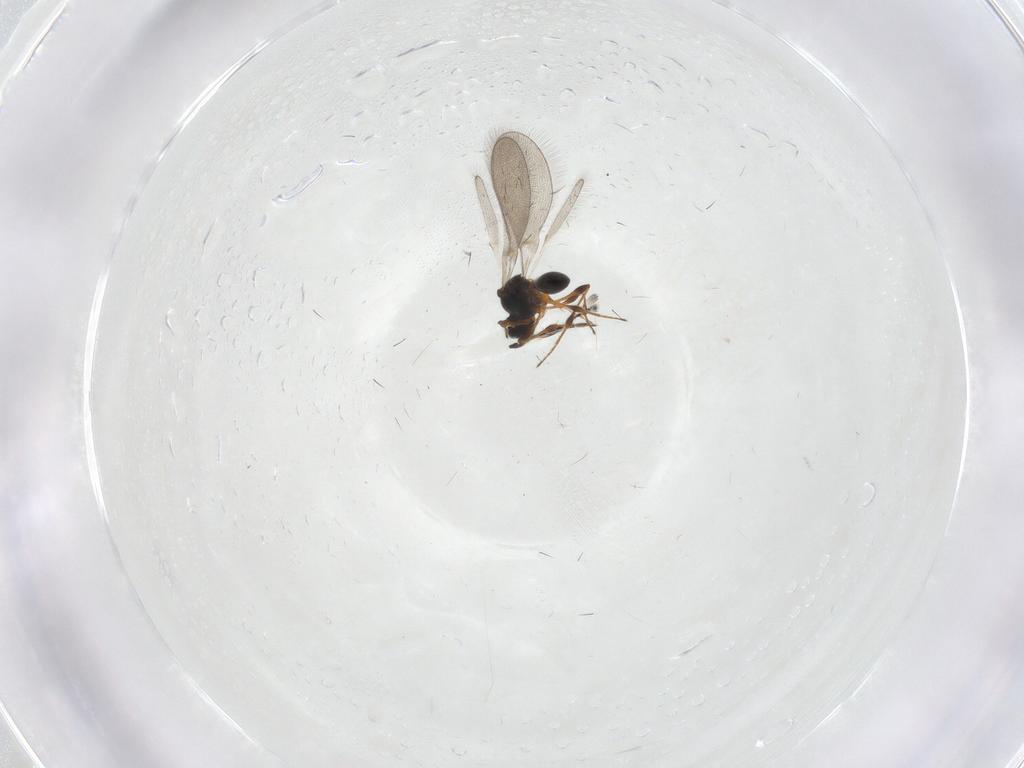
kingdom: Animalia
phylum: Arthropoda
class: Insecta
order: Hymenoptera
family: Platygastridae
